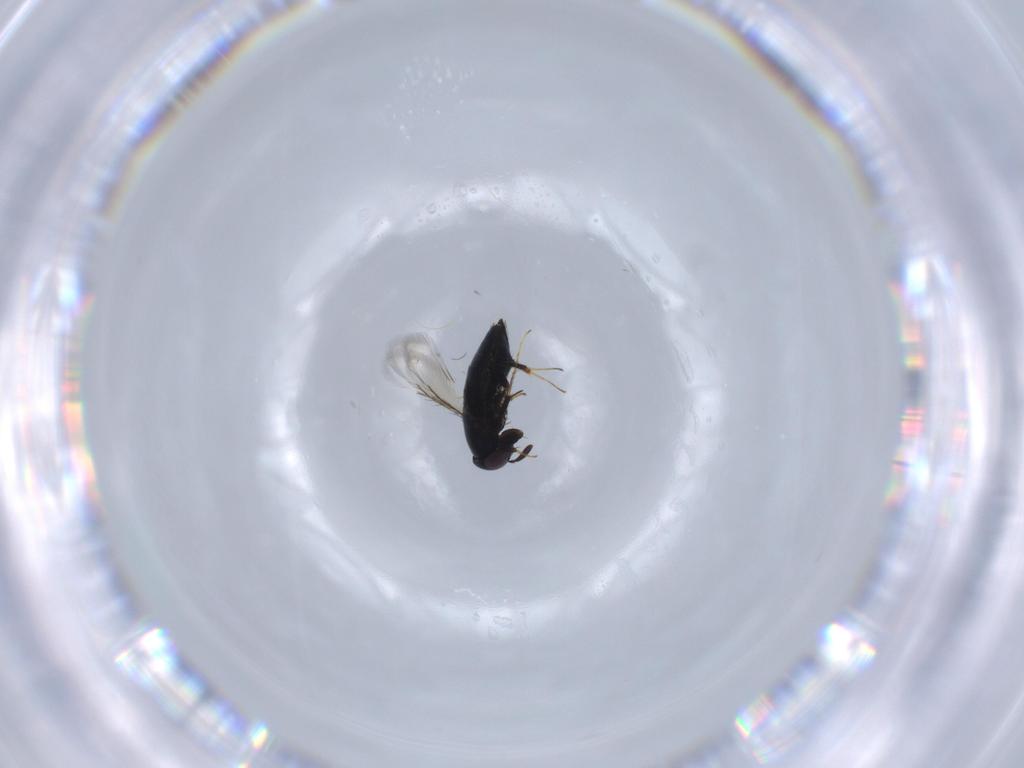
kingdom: Animalia
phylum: Arthropoda
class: Insecta
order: Hymenoptera
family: Signiphoridae
